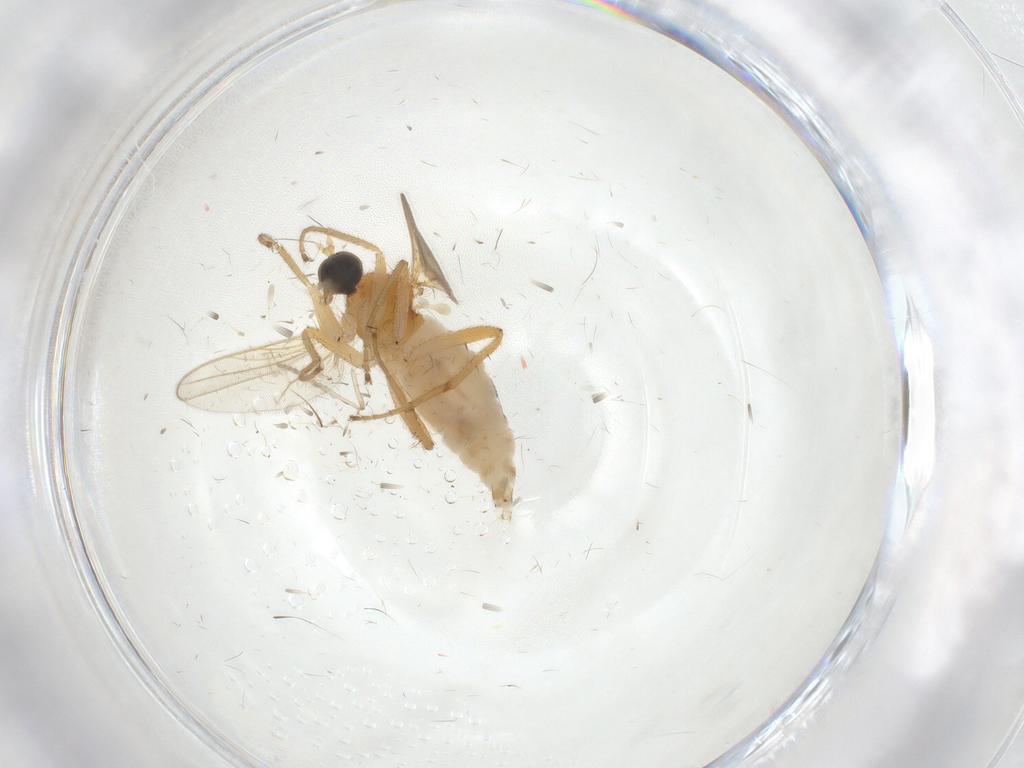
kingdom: Animalia
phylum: Arthropoda
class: Insecta
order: Diptera
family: Hybotidae
